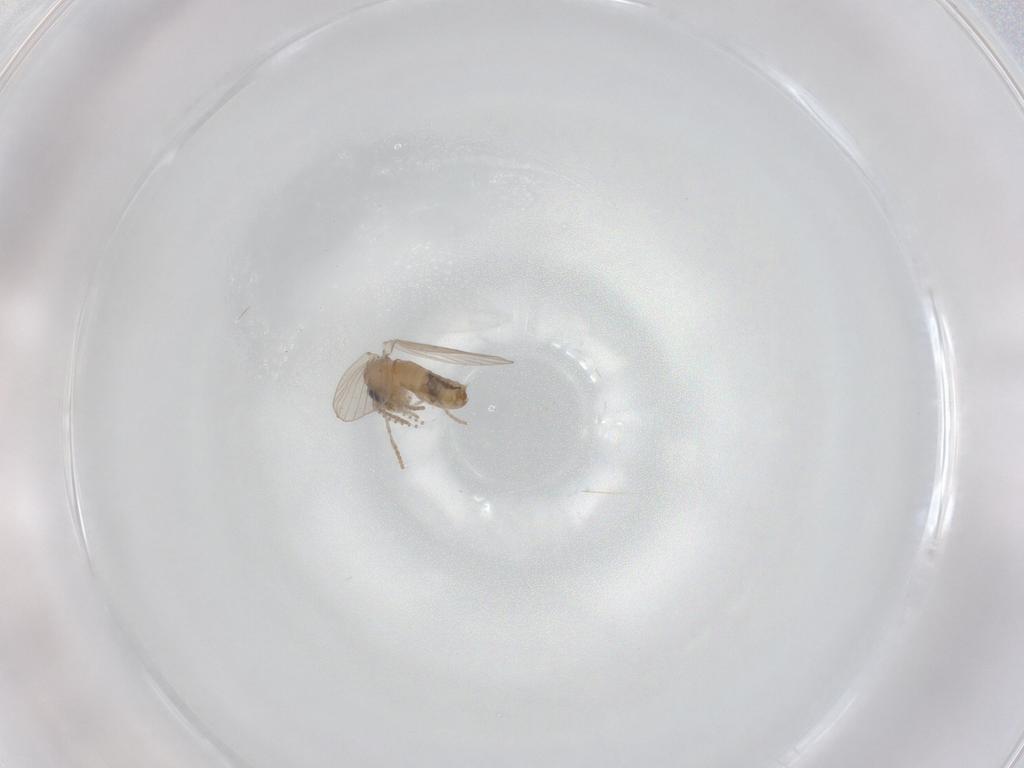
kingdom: Animalia
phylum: Arthropoda
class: Insecta
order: Diptera
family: Psychodidae
